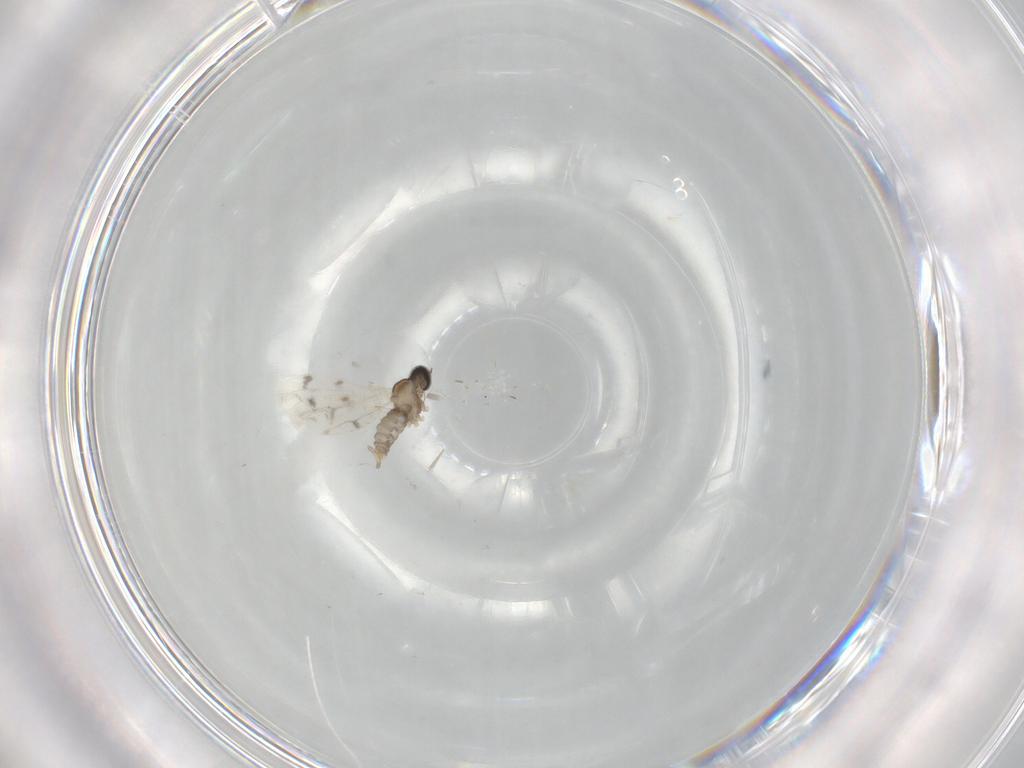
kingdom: Animalia
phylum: Arthropoda
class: Insecta
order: Diptera
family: Cecidomyiidae
